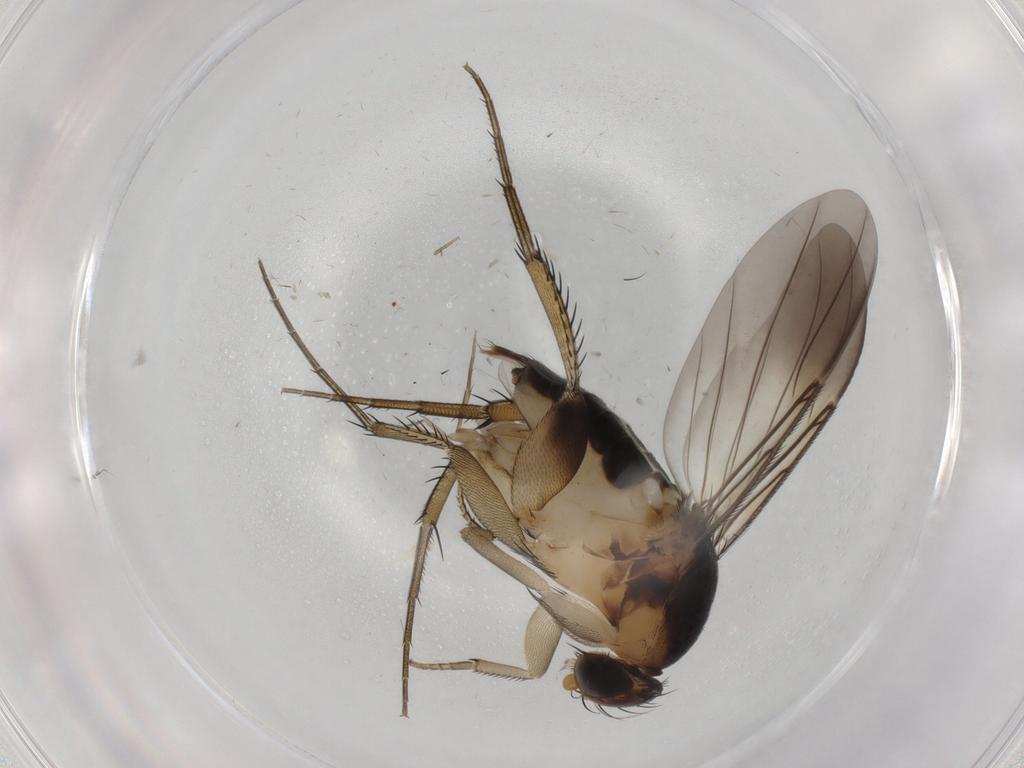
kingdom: Animalia
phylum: Arthropoda
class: Insecta
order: Diptera
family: Phoridae
